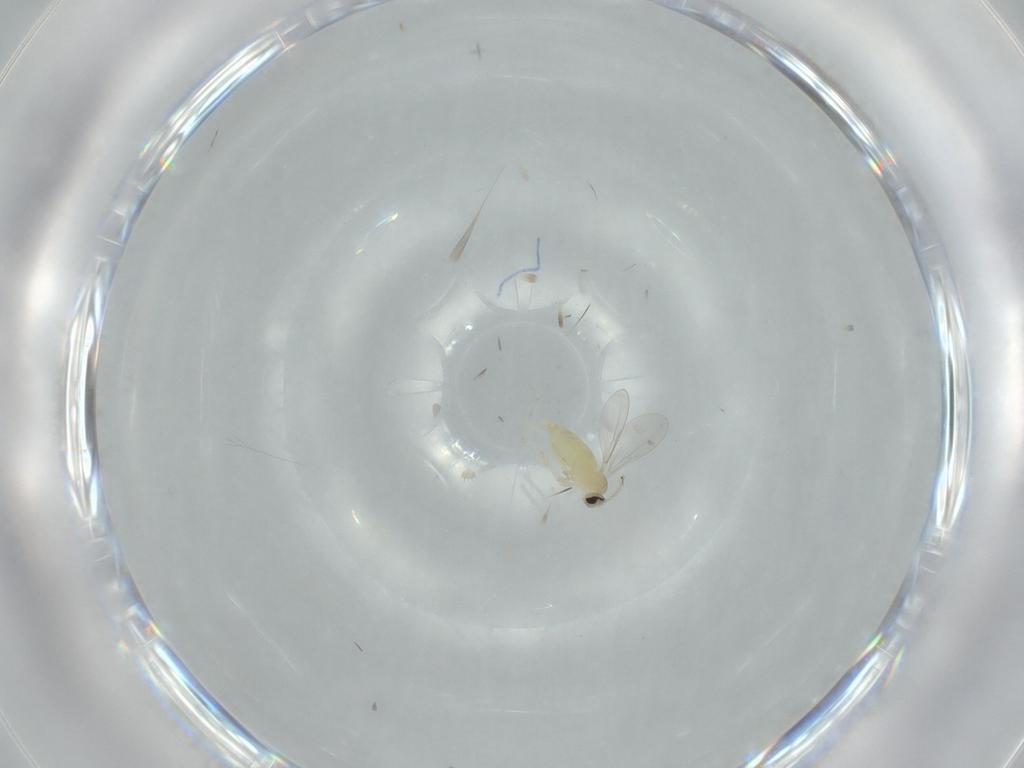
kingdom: Animalia
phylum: Arthropoda
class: Insecta
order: Diptera
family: Cecidomyiidae
